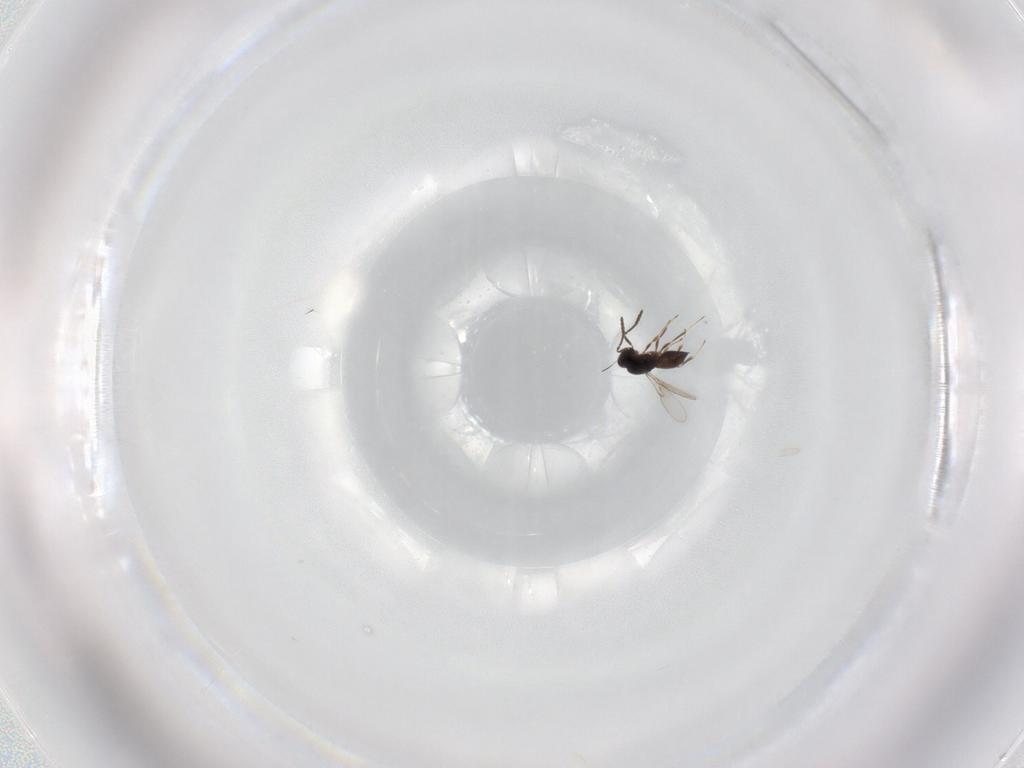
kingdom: Animalia
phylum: Arthropoda
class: Insecta
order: Hymenoptera
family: Scelionidae
